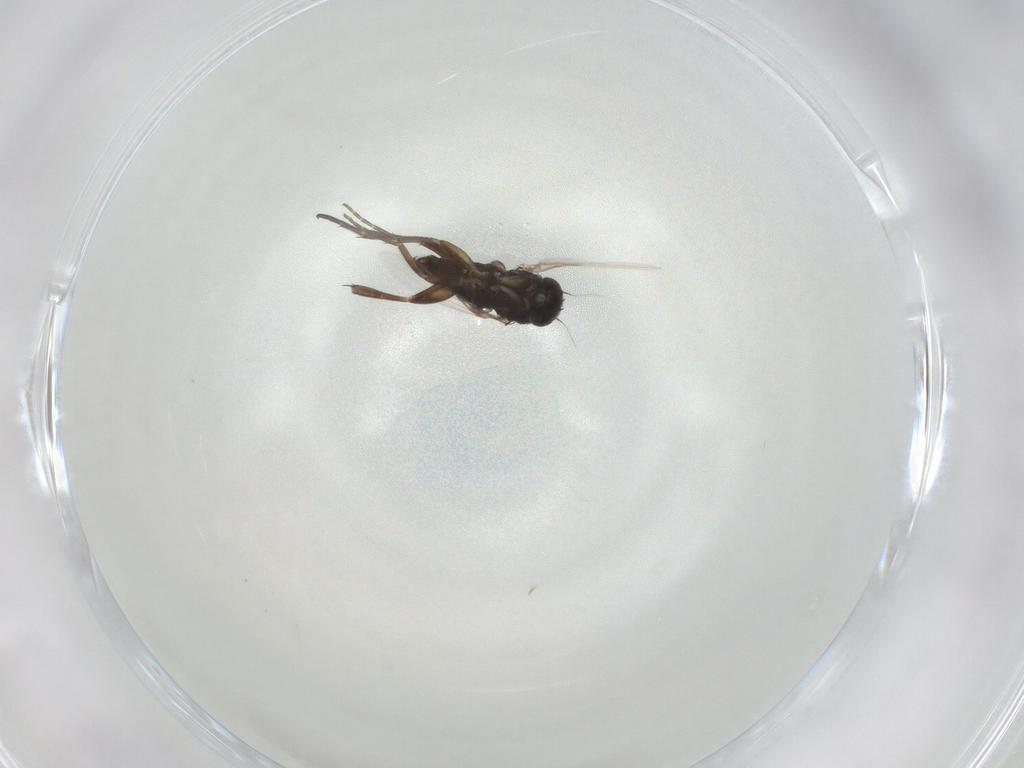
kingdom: Animalia
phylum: Arthropoda
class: Insecta
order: Diptera
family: Phoridae
